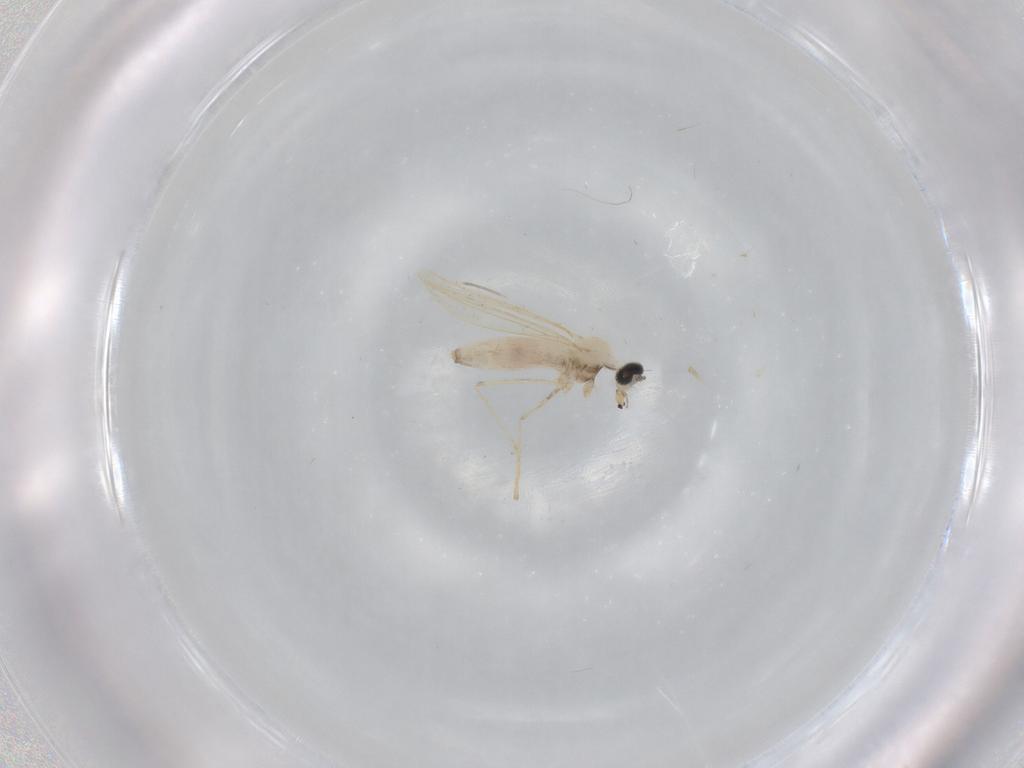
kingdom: Animalia
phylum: Arthropoda
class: Insecta
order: Diptera
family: Cecidomyiidae
